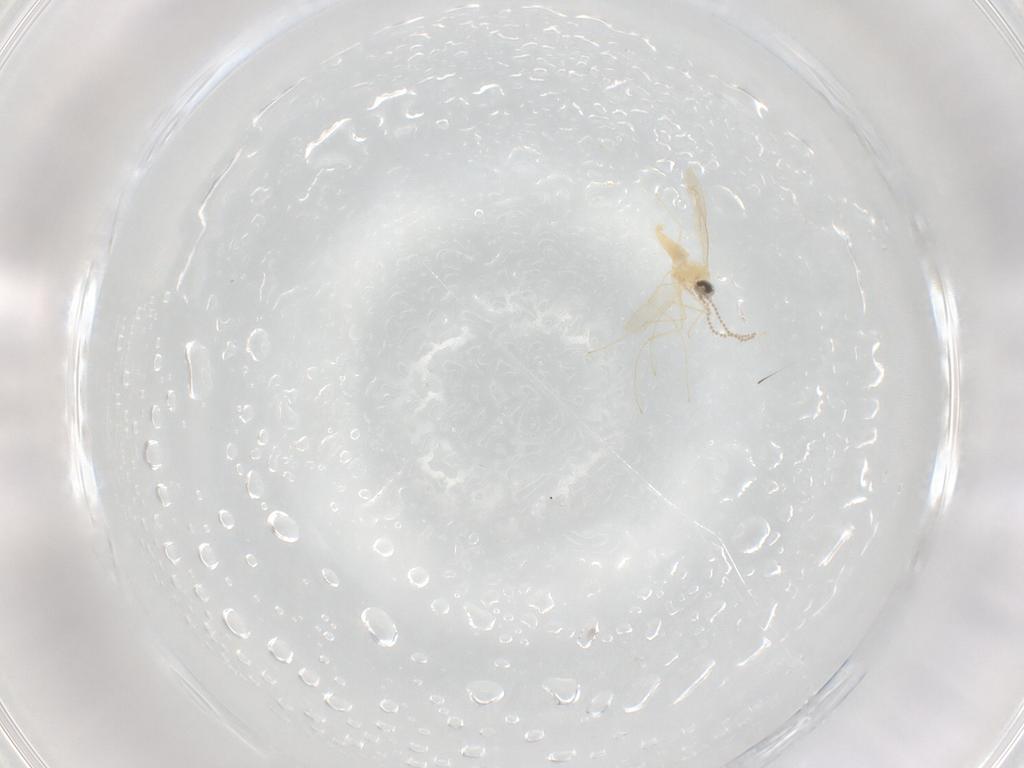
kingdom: Animalia
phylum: Arthropoda
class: Insecta
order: Diptera
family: Cecidomyiidae
